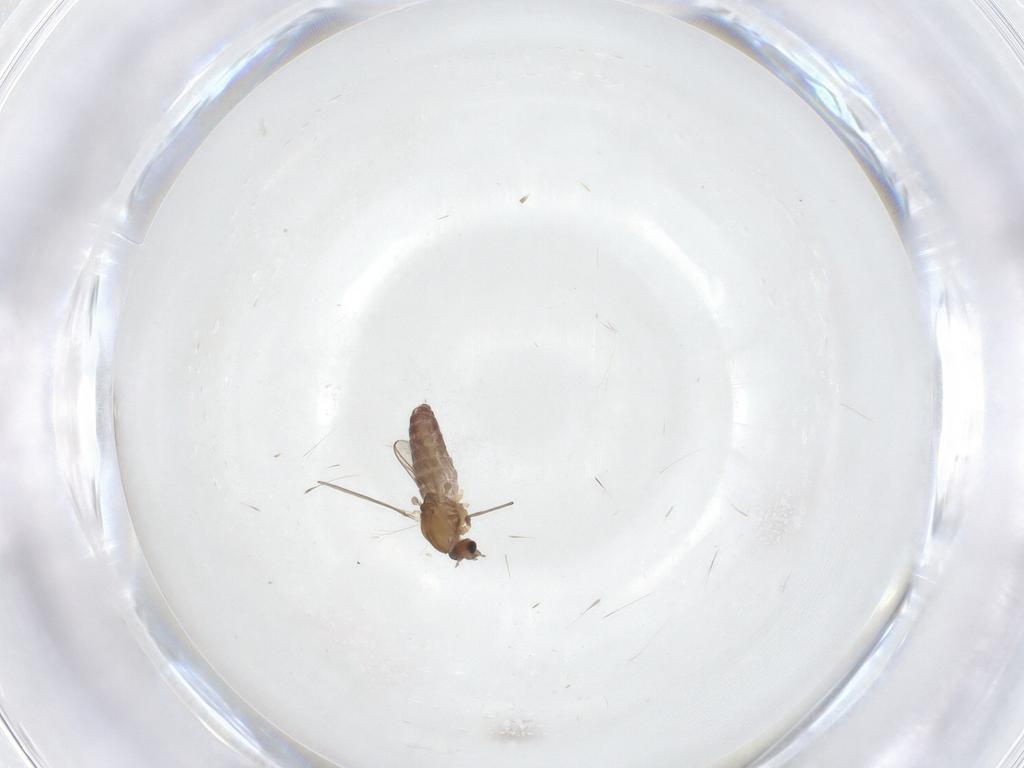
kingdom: Animalia
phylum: Arthropoda
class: Insecta
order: Diptera
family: Chironomidae
